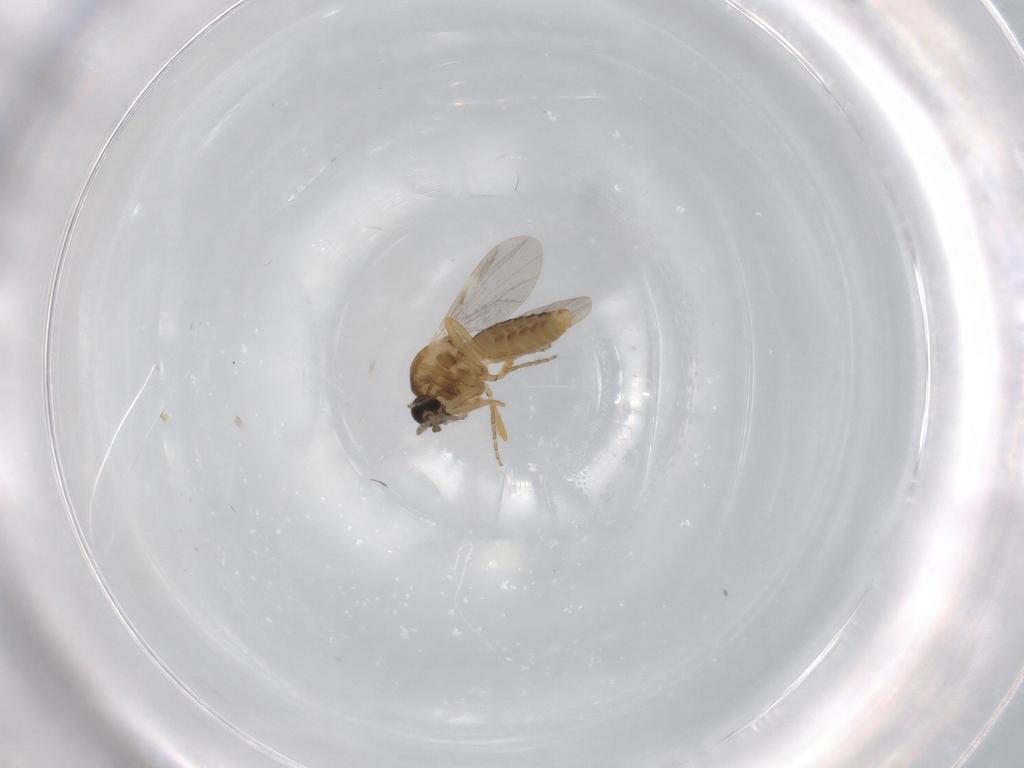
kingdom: Animalia
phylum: Arthropoda
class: Insecta
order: Diptera
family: Ceratopogonidae
